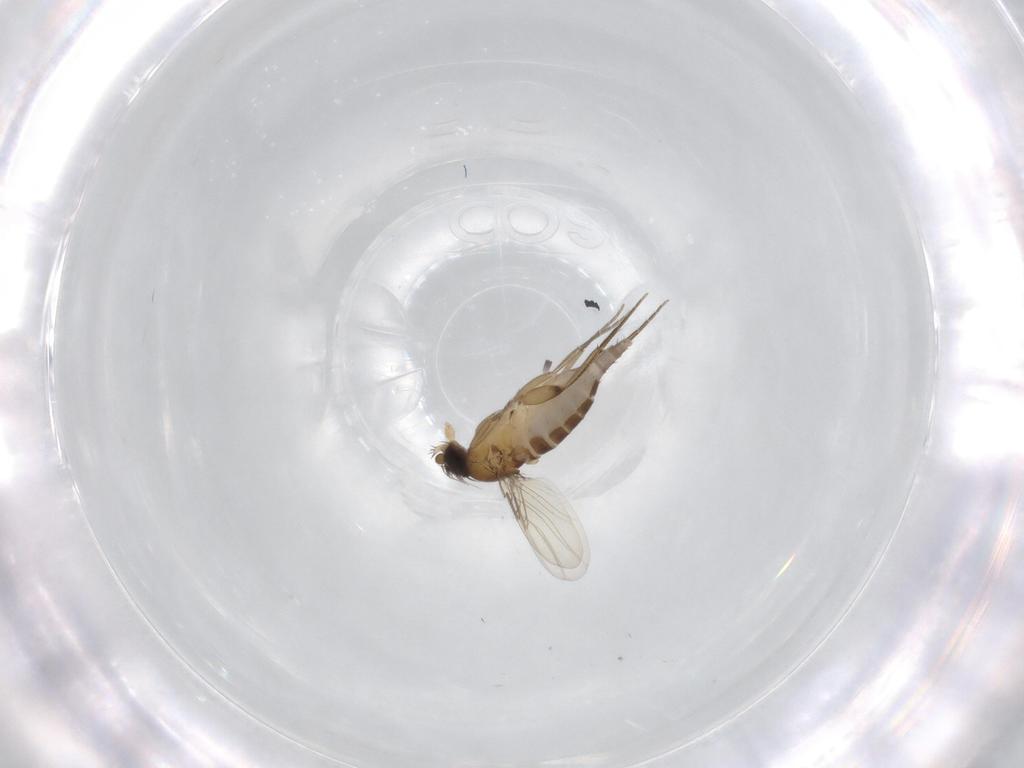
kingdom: Animalia
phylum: Arthropoda
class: Insecta
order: Diptera
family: Phoridae
